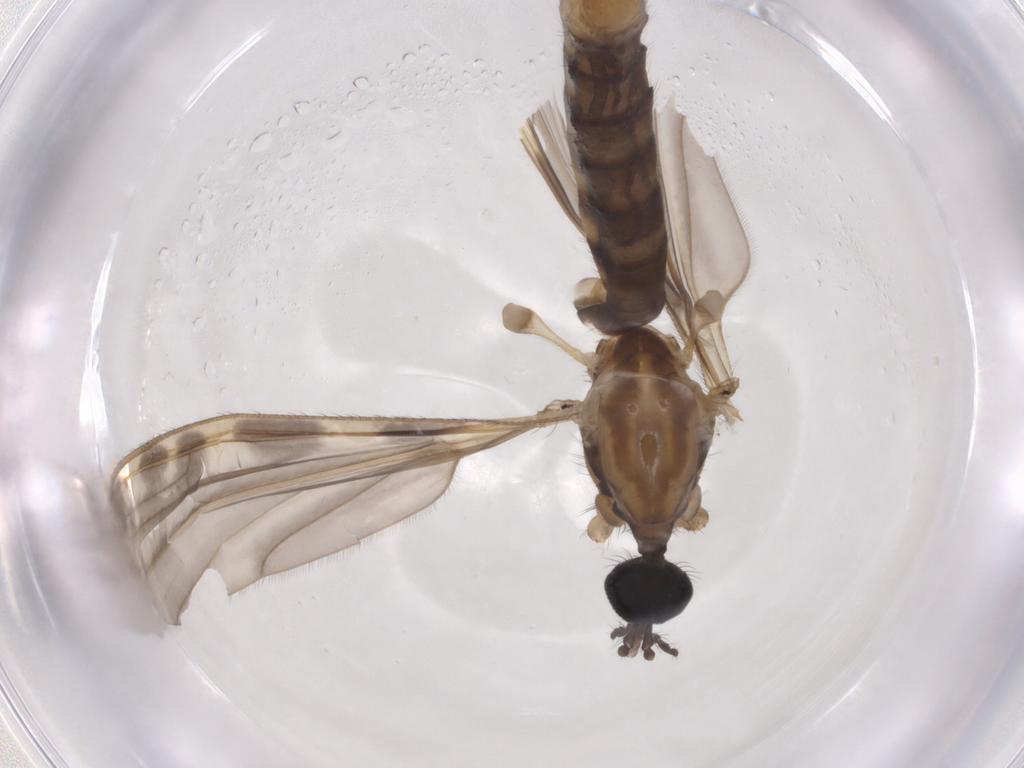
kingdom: Animalia
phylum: Arthropoda
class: Insecta
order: Diptera
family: Limoniidae
